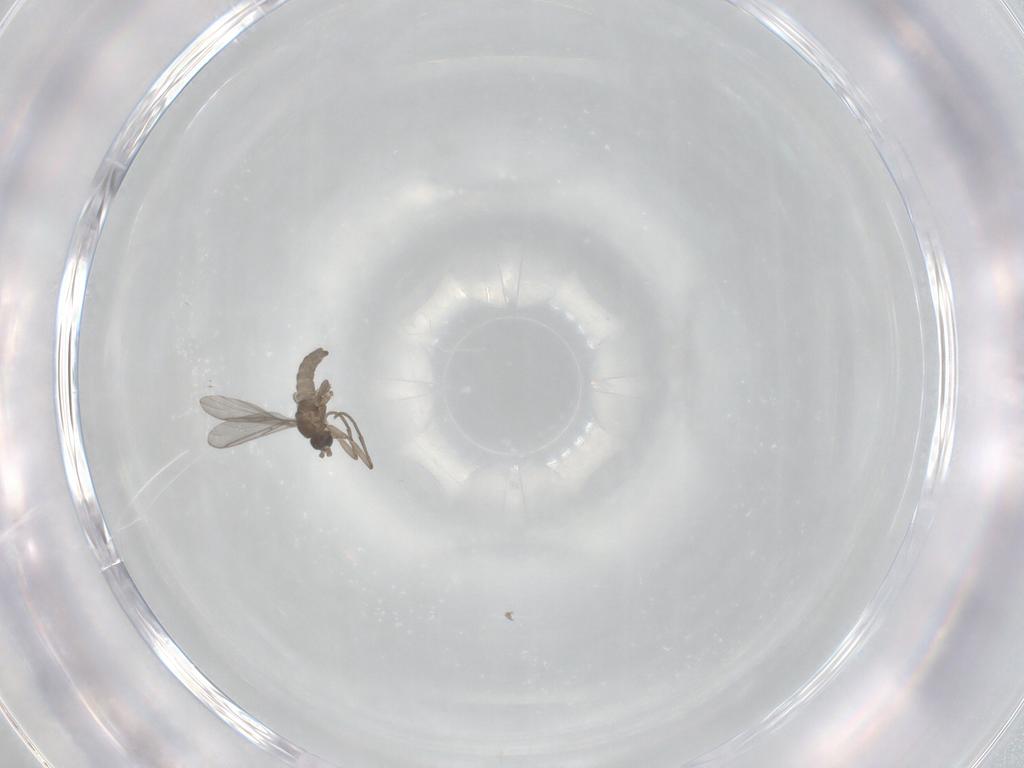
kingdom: Animalia
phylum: Arthropoda
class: Insecta
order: Diptera
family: Sciaridae
